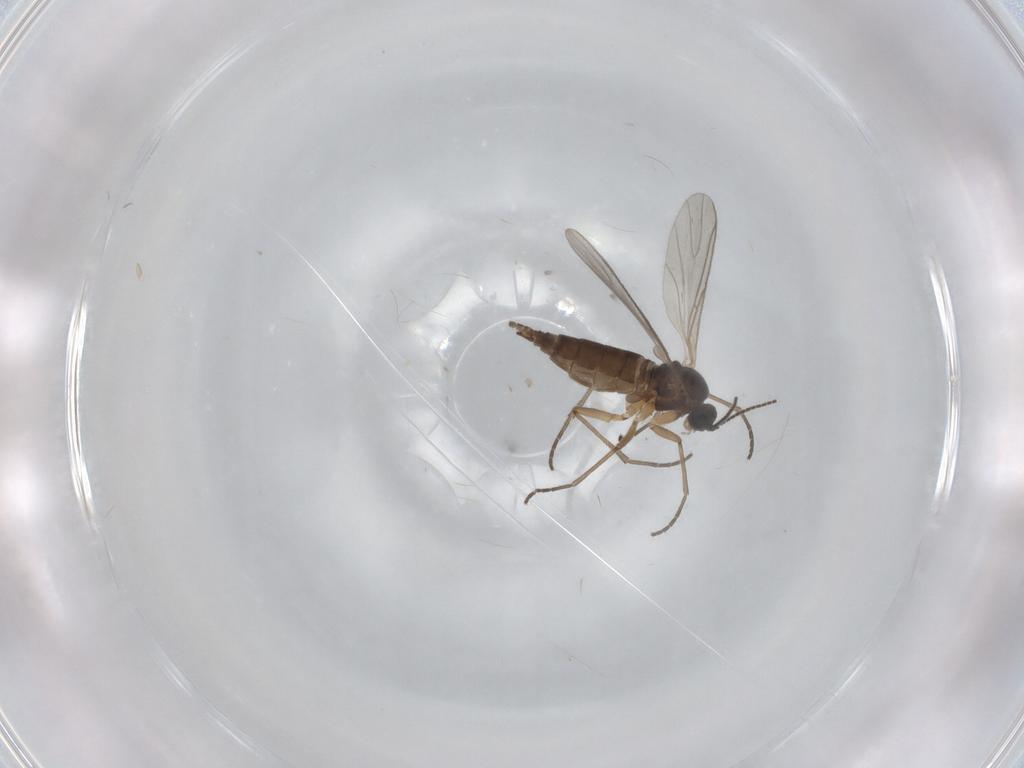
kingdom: Animalia
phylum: Arthropoda
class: Insecta
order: Diptera
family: Sciaridae
